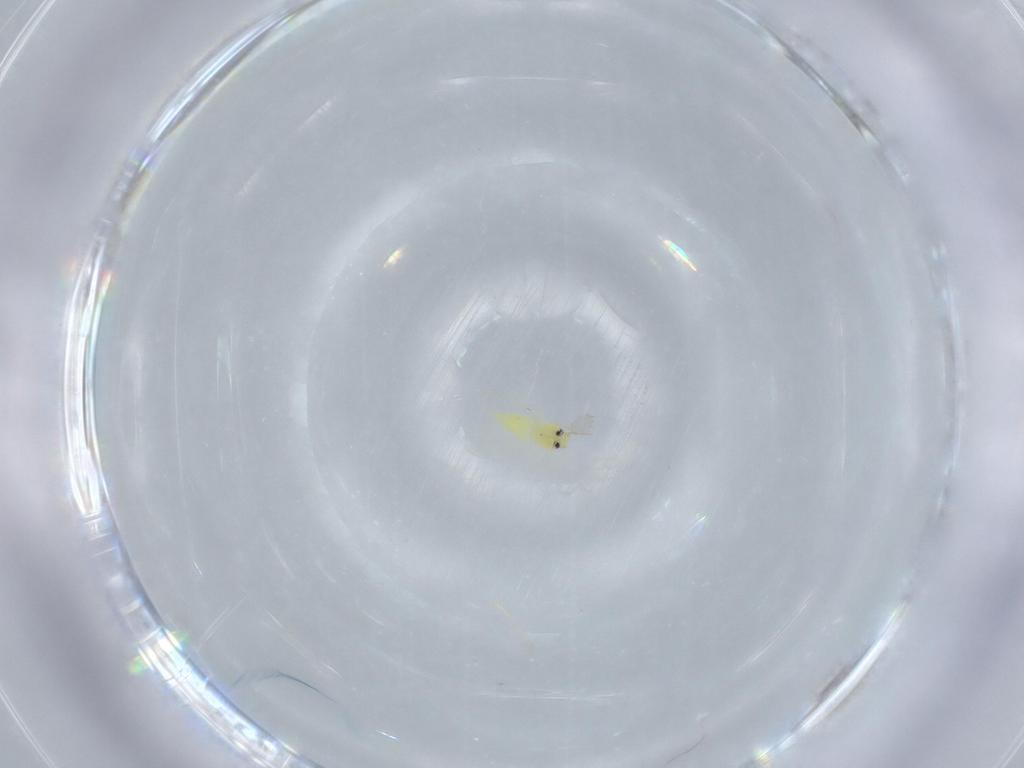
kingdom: Animalia
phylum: Arthropoda
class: Insecta
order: Hemiptera
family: Aleyrodidae
